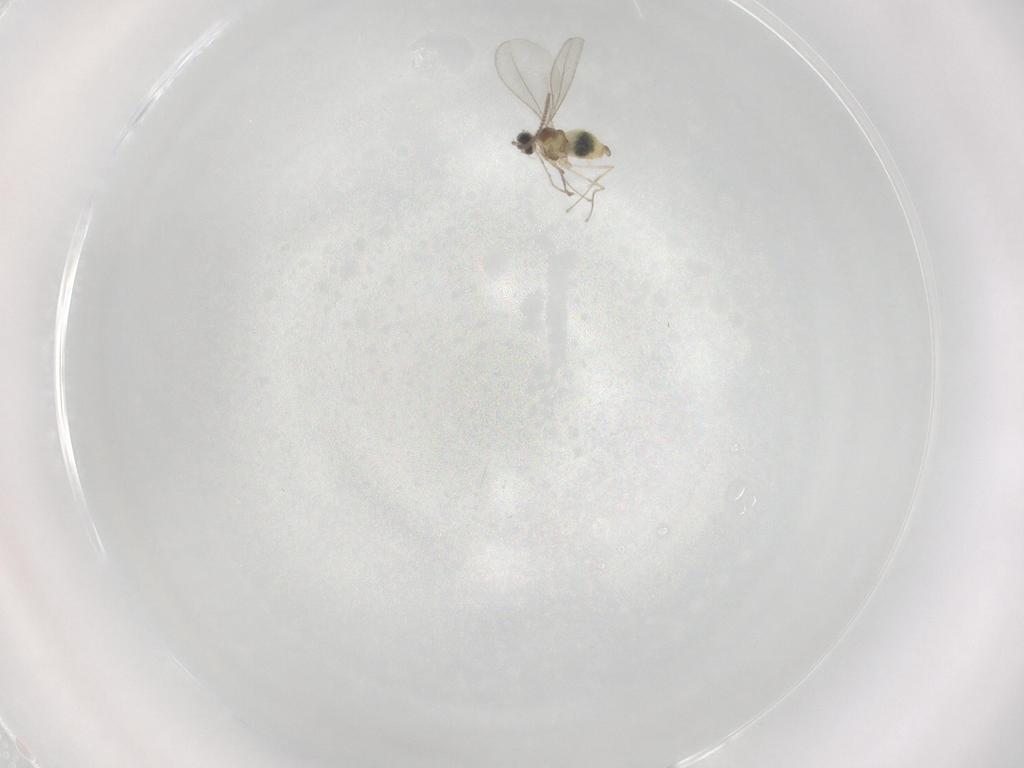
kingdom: Animalia
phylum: Arthropoda
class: Insecta
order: Diptera
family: Cecidomyiidae
